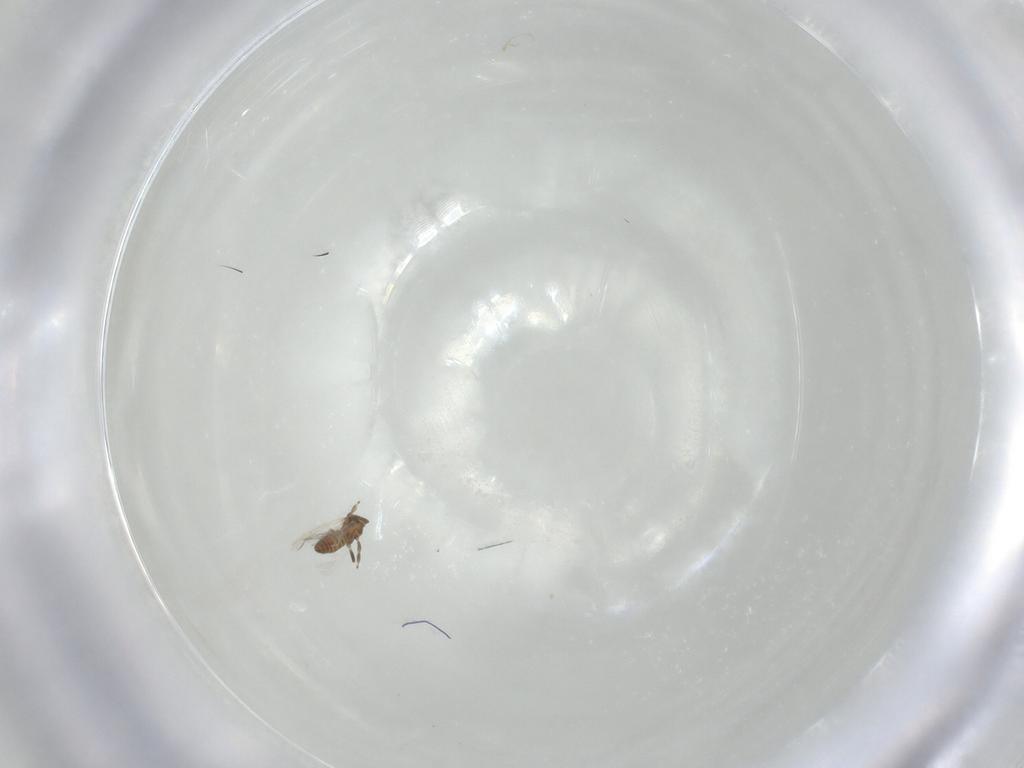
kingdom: Animalia
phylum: Arthropoda
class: Insecta
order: Thysanoptera
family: Heterothripidae
